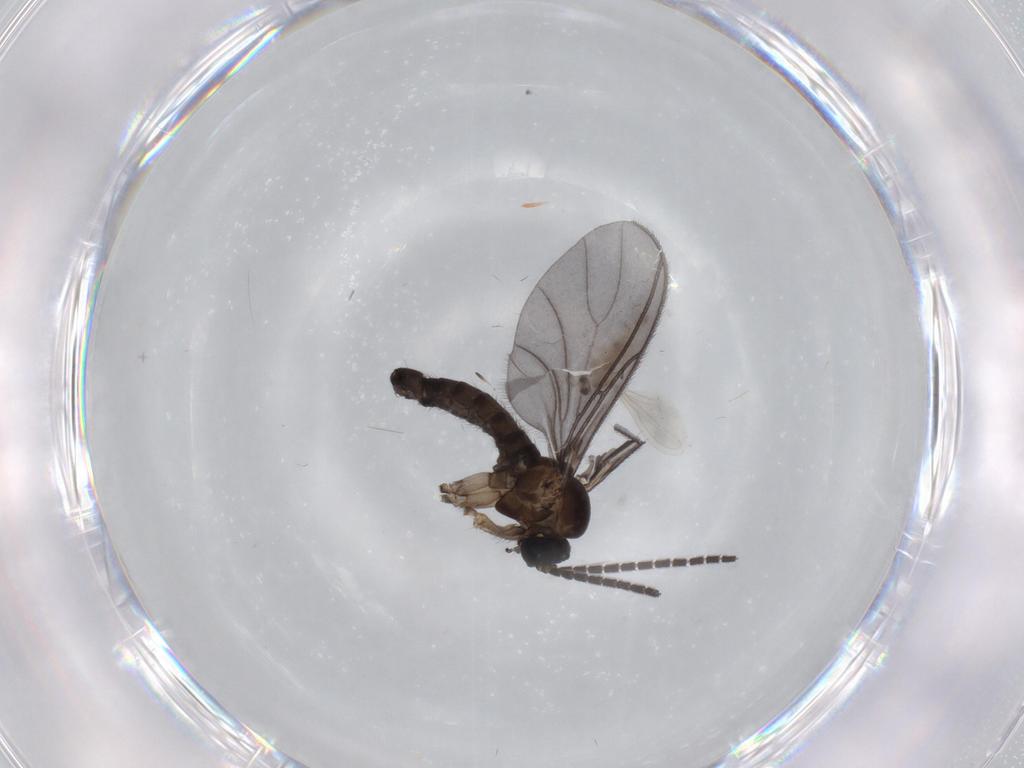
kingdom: Animalia
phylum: Arthropoda
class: Insecta
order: Diptera
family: Sciaridae
